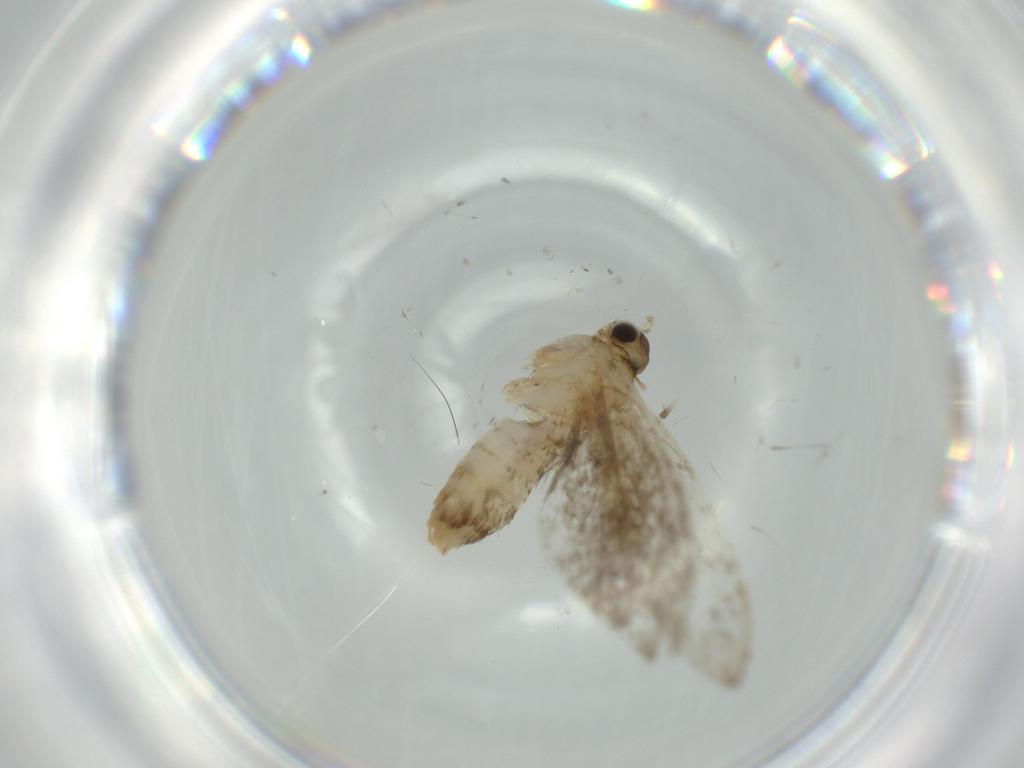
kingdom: Animalia
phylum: Arthropoda
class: Insecta
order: Lepidoptera
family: Tineidae
